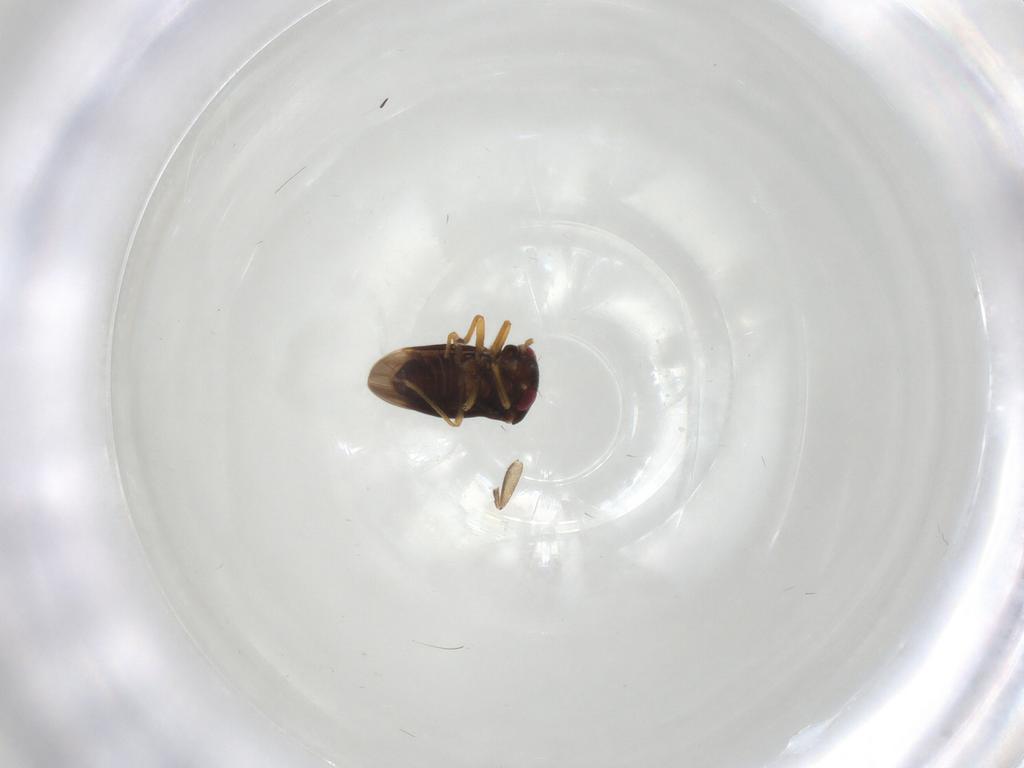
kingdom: Animalia
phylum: Arthropoda
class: Insecta
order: Hemiptera
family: Schizopteridae
